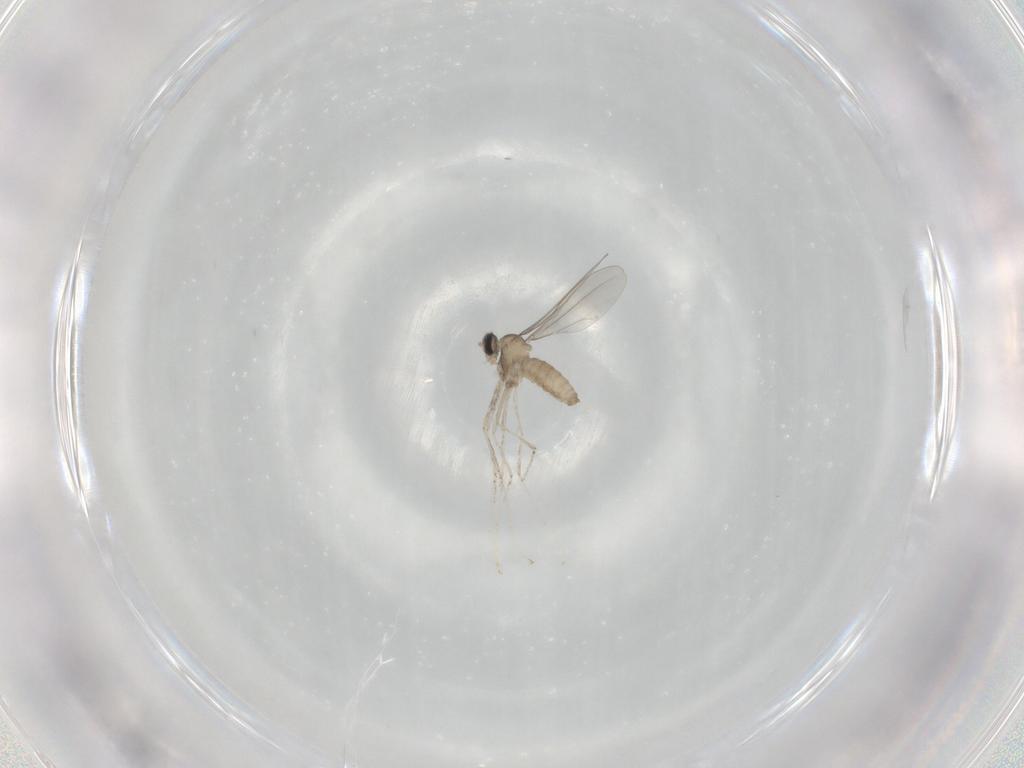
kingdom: Animalia
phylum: Arthropoda
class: Insecta
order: Diptera
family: Cecidomyiidae
